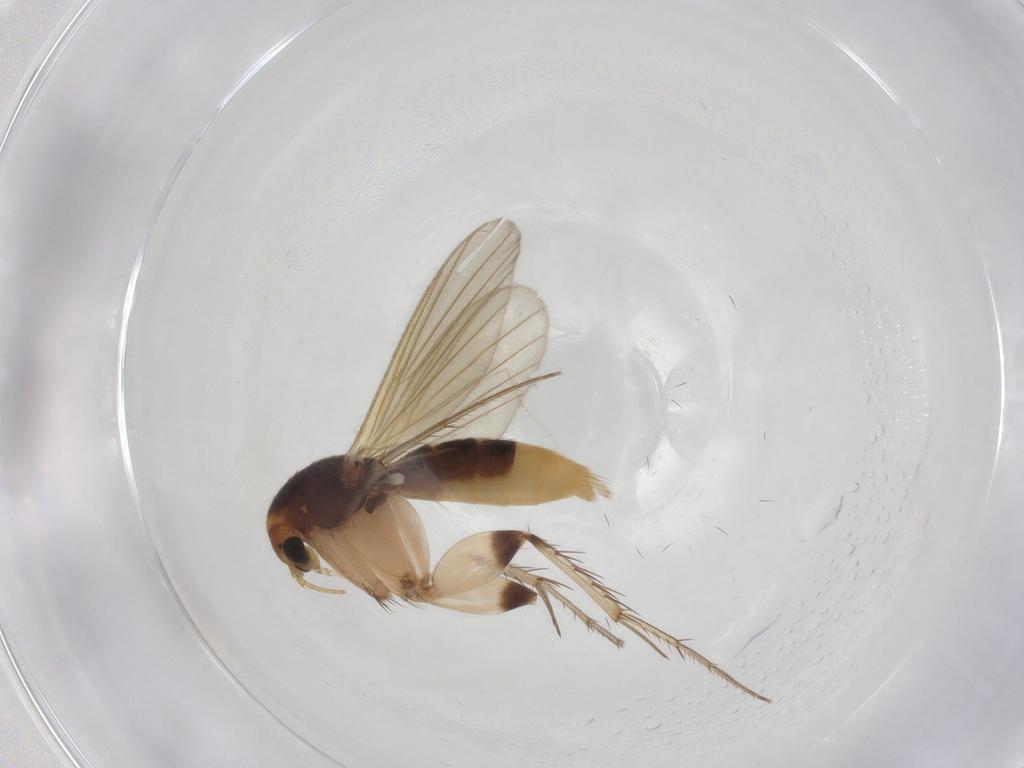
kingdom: Animalia
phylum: Arthropoda
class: Insecta
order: Diptera
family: Mycetophilidae
